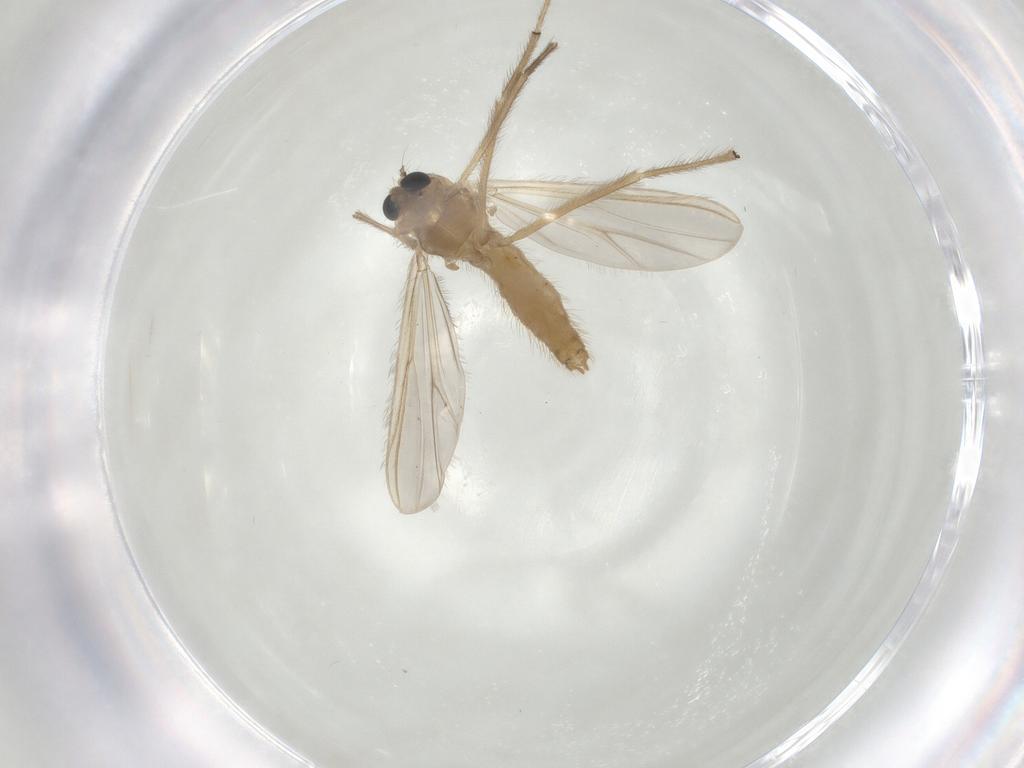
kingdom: Animalia
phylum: Arthropoda
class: Insecta
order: Diptera
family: Chironomidae
